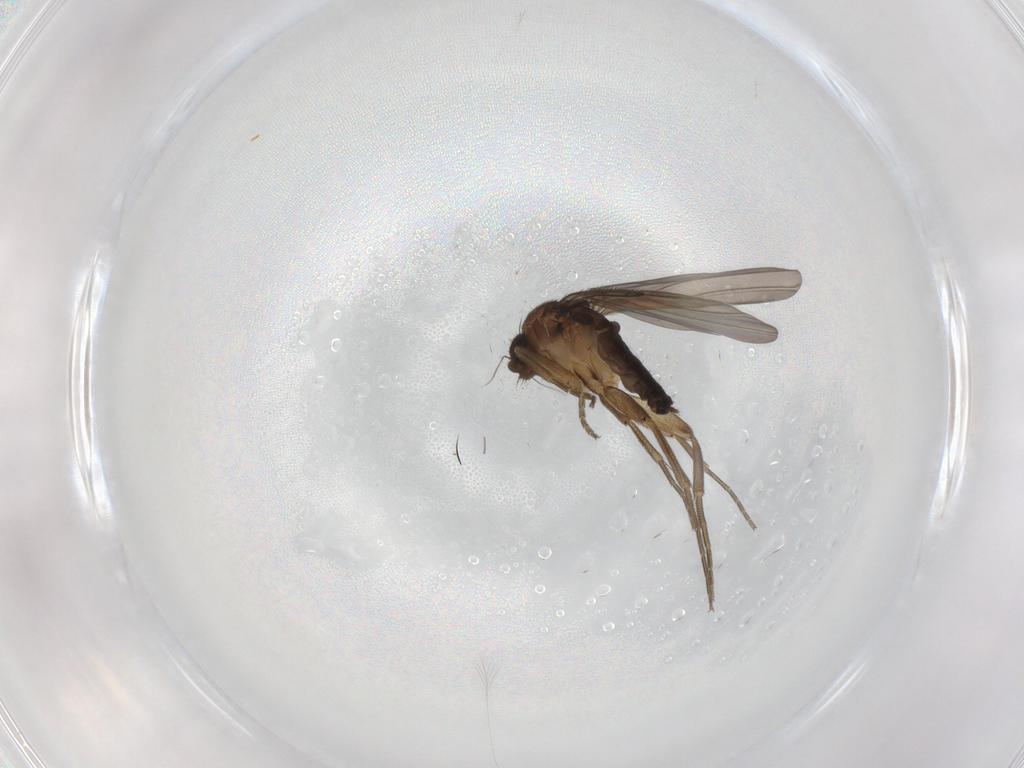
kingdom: Animalia
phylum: Arthropoda
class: Insecta
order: Diptera
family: Phoridae
